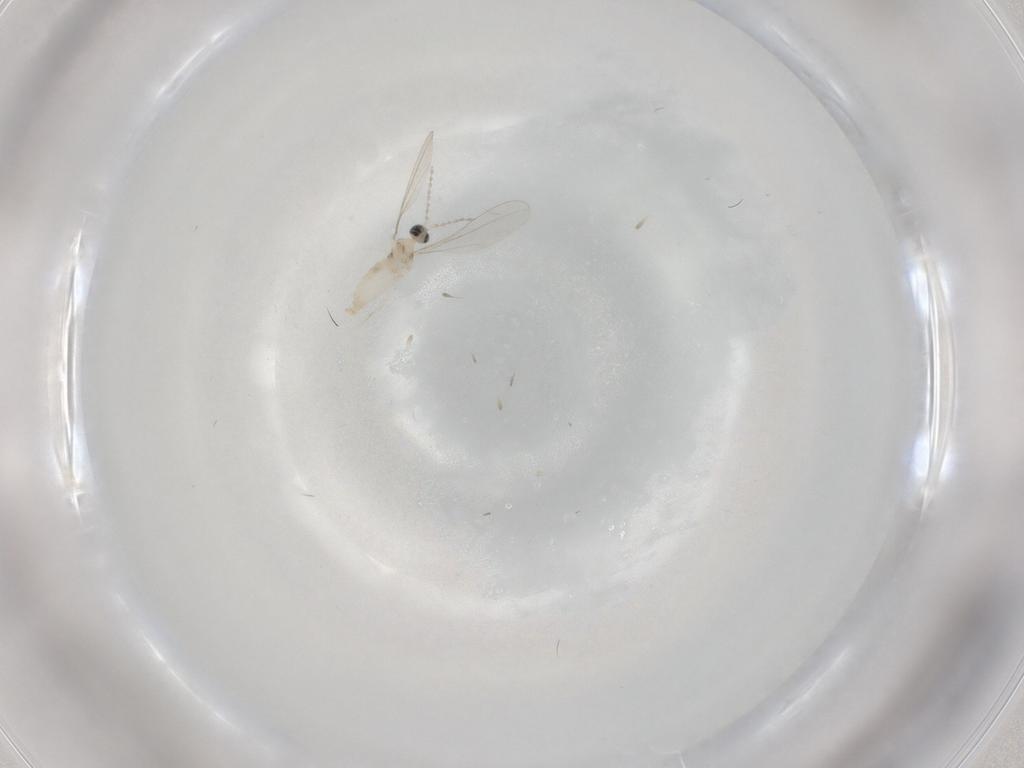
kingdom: Animalia
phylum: Arthropoda
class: Insecta
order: Diptera
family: Cecidomyiidae
